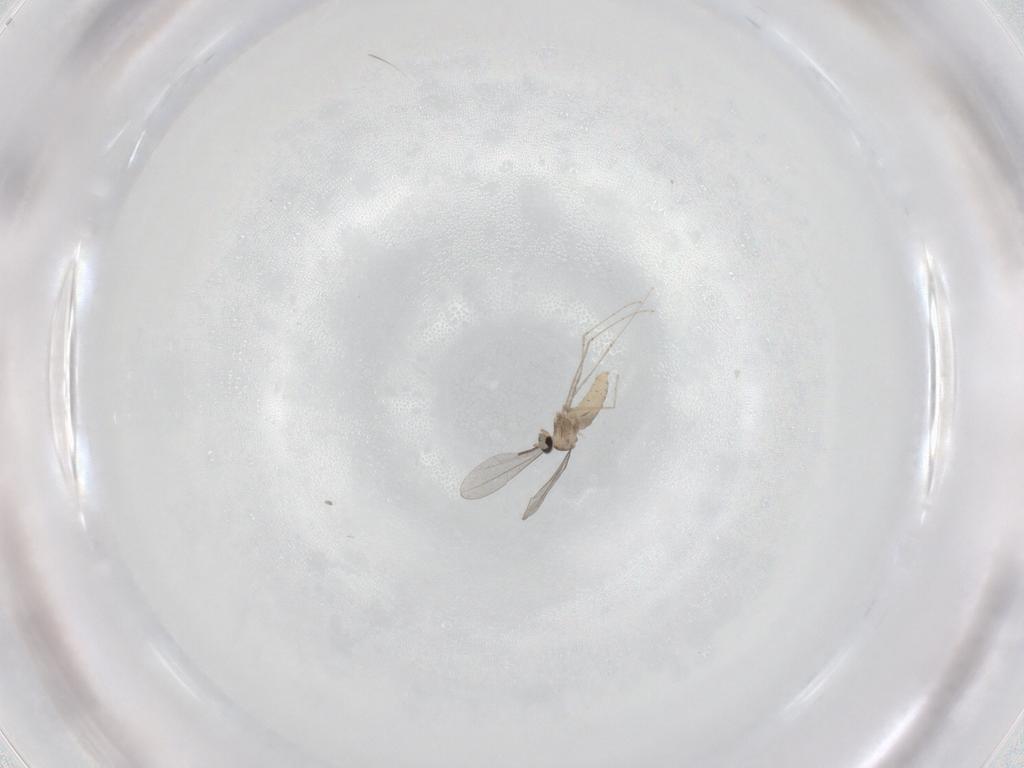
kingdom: Animalia
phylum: Arthropoda
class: Insecta
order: Diptera
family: Cecidomyiidae
